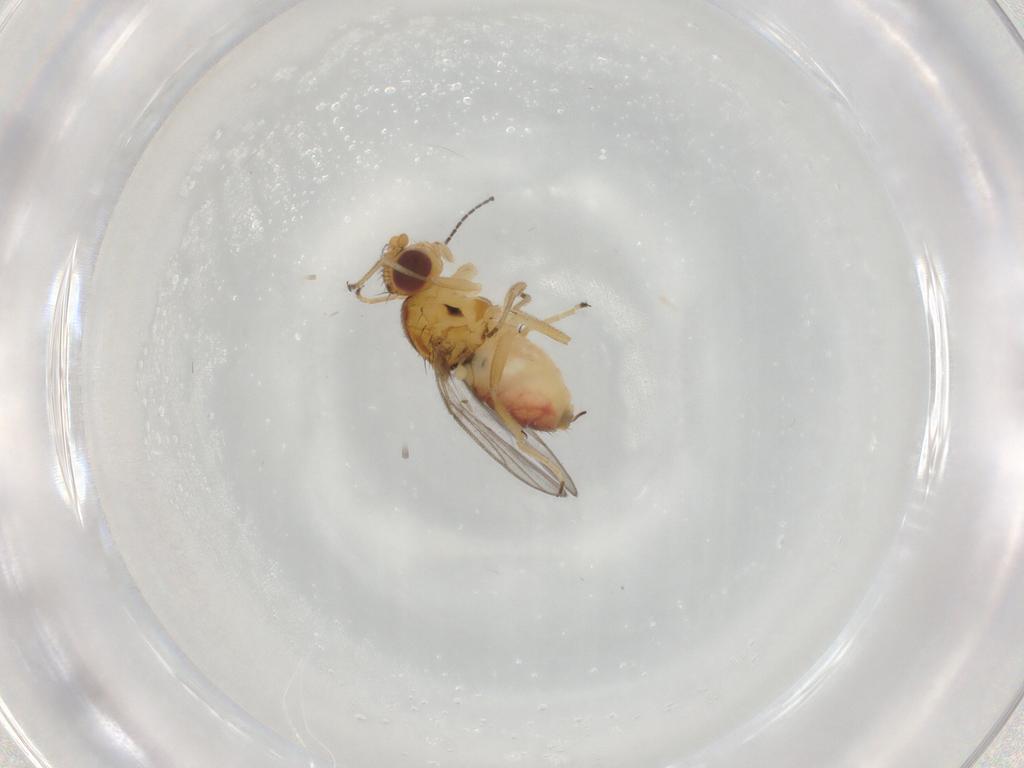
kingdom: Animalia
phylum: Arthropoda
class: Insecta
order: Diptera
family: Chloropidae
